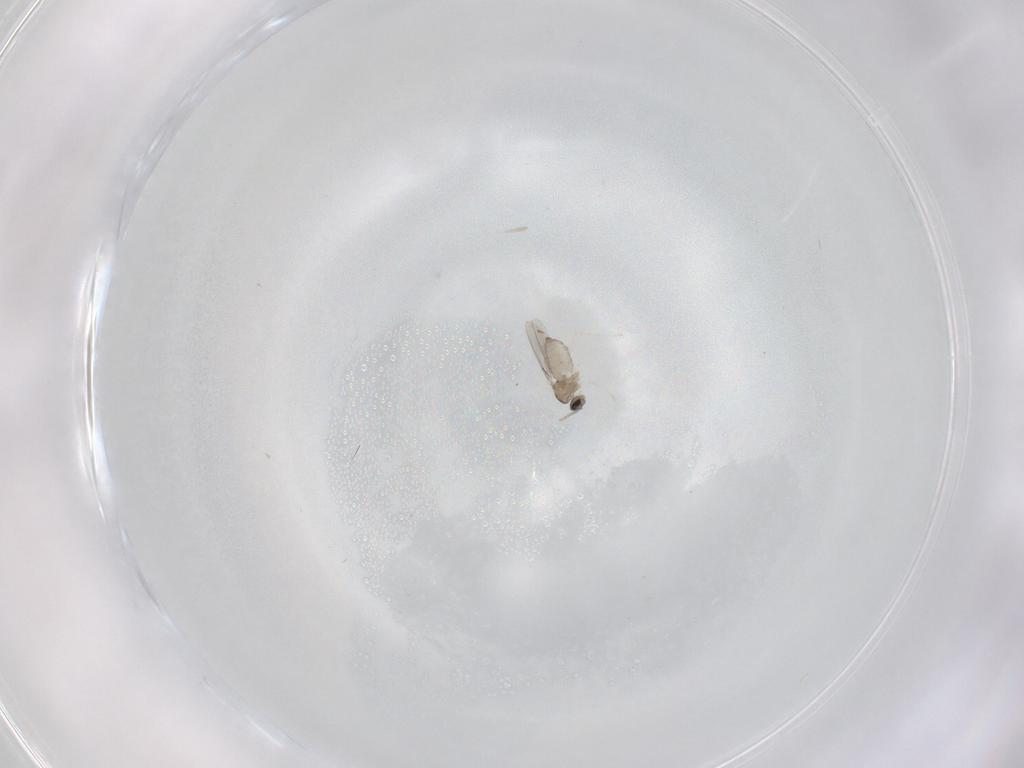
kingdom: Animalia
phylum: Arthropoda
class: Insecta
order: Diptera
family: Cecidomyiidae
